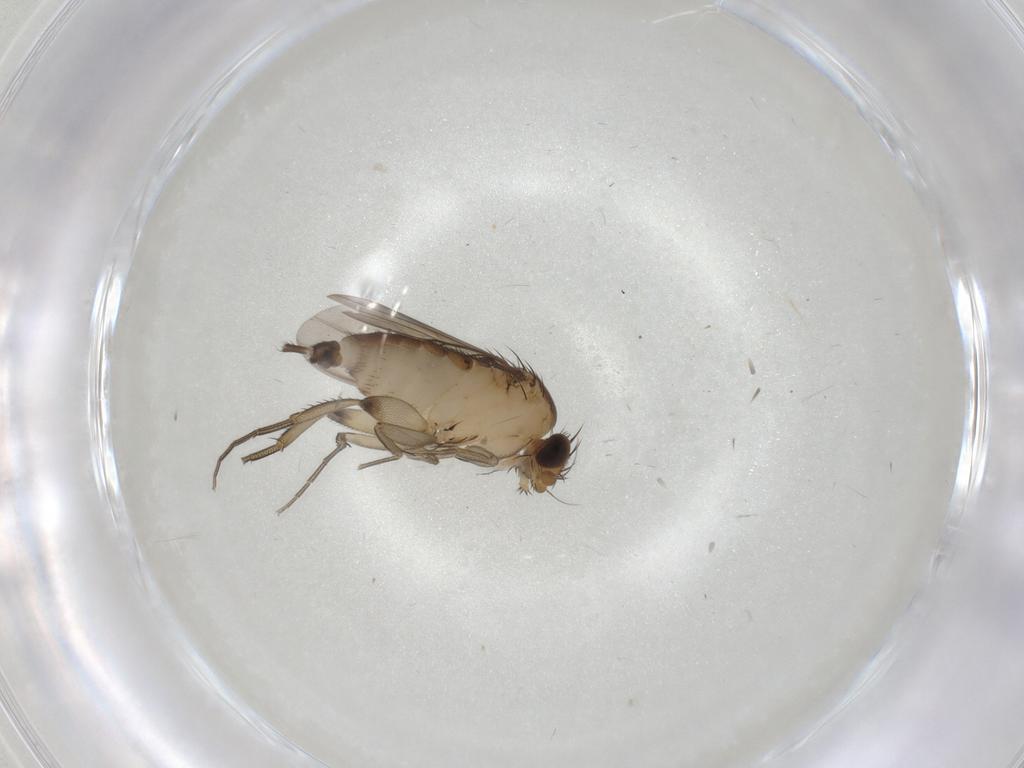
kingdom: Animalia
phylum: Arthropoda
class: Insecta
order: Diptera
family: Phoridae
